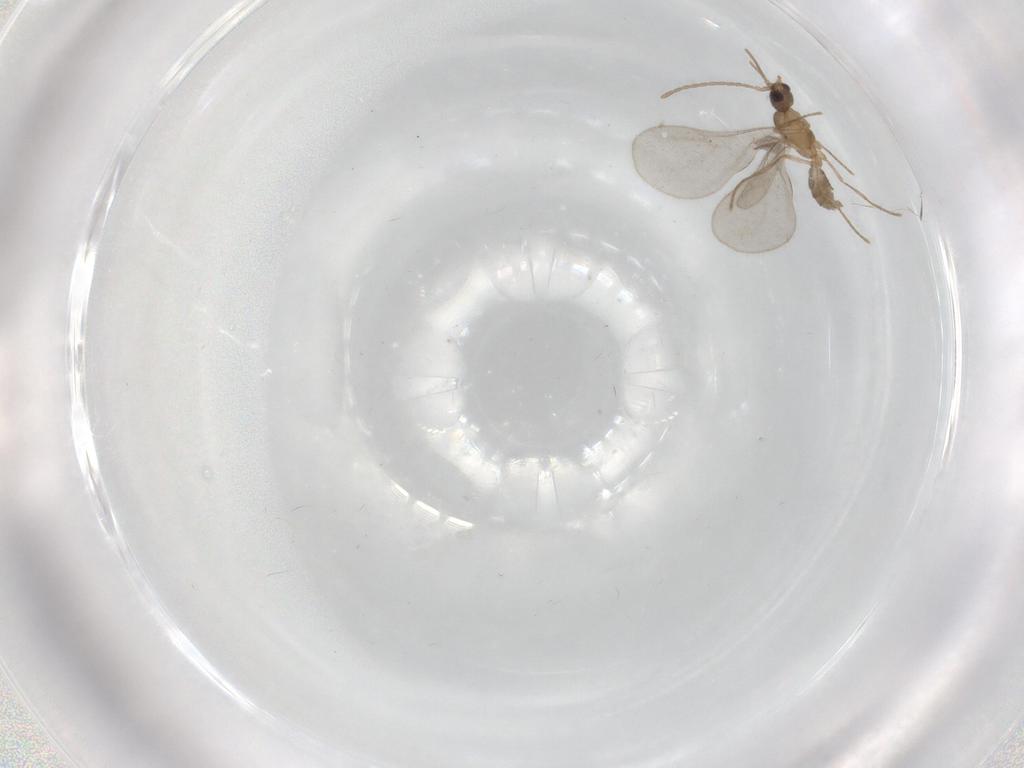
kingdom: Animalia
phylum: Arthropoda
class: Insecta
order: Hymenoptera
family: Formicidae
